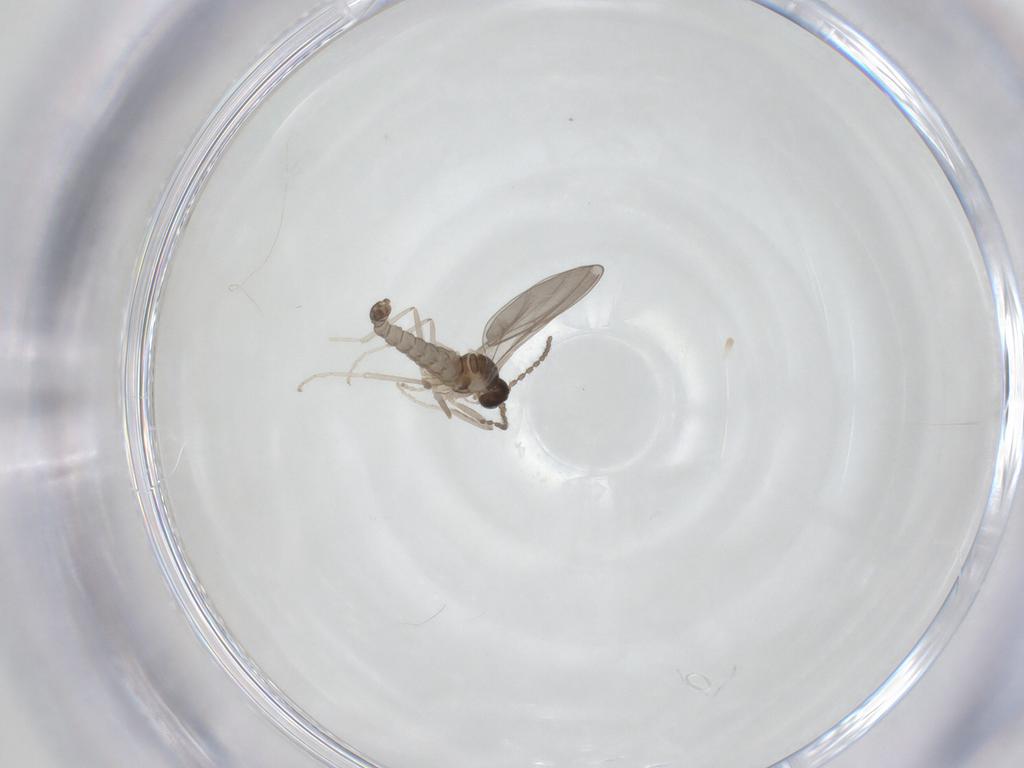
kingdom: Animalia
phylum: Arthropoda
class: Insecta
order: Diptera
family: Cecidomyiidae
